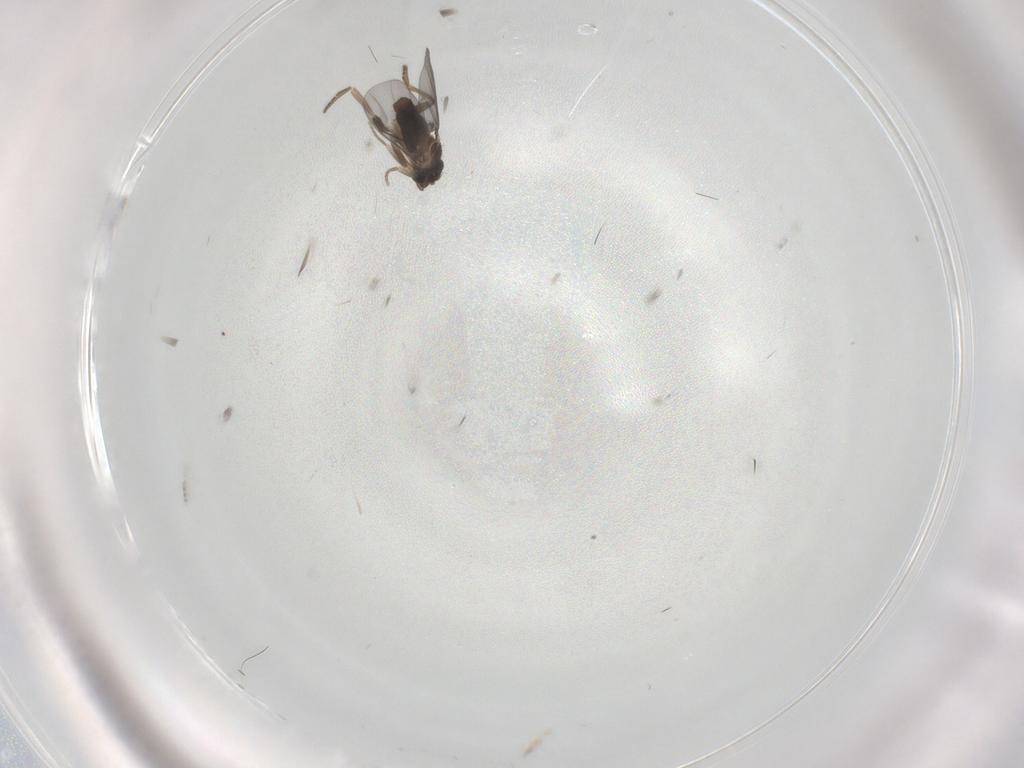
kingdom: Animalia
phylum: Arthropoda
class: Insecta
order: Diptera
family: Phoridae
